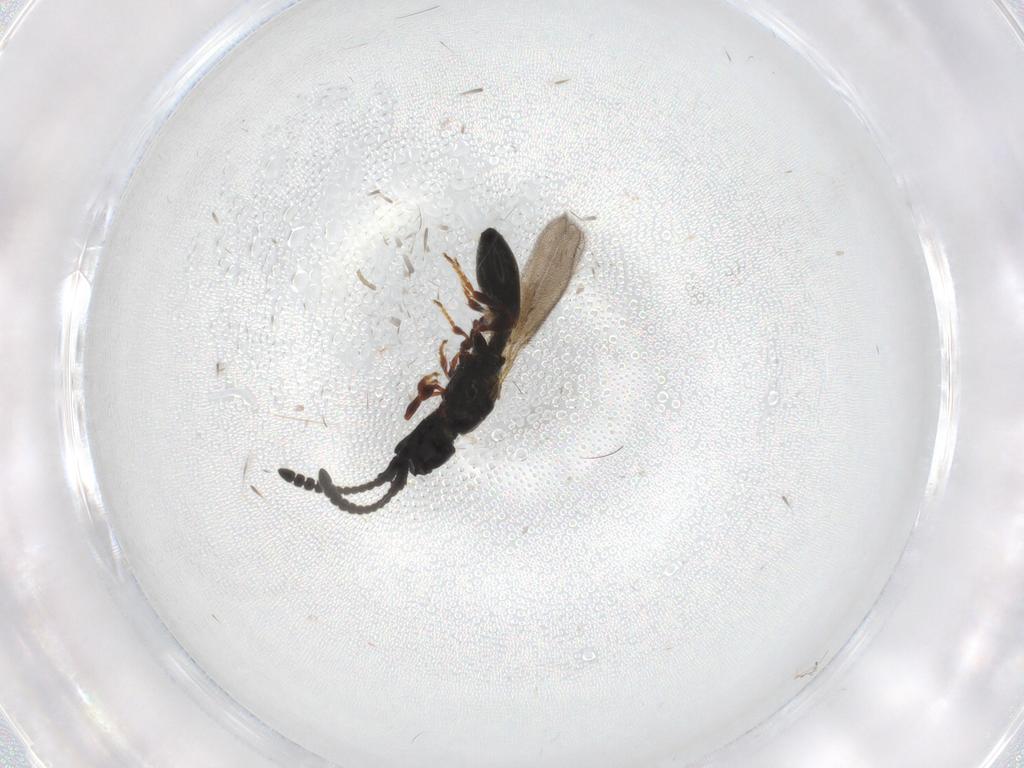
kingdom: Animalia
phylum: Arthropoda
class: Insecta
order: Hymenoptera
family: Diapriidae
